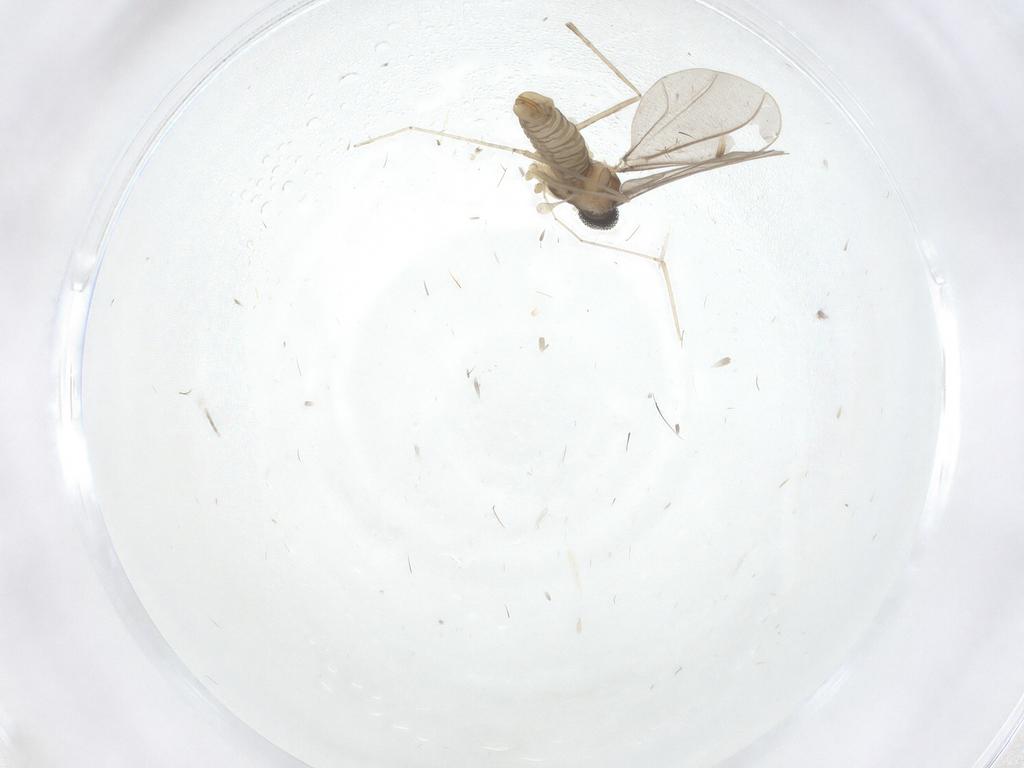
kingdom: Animalia
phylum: Arthropoda
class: Insecta
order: Diptera
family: Cecidomyiidae
